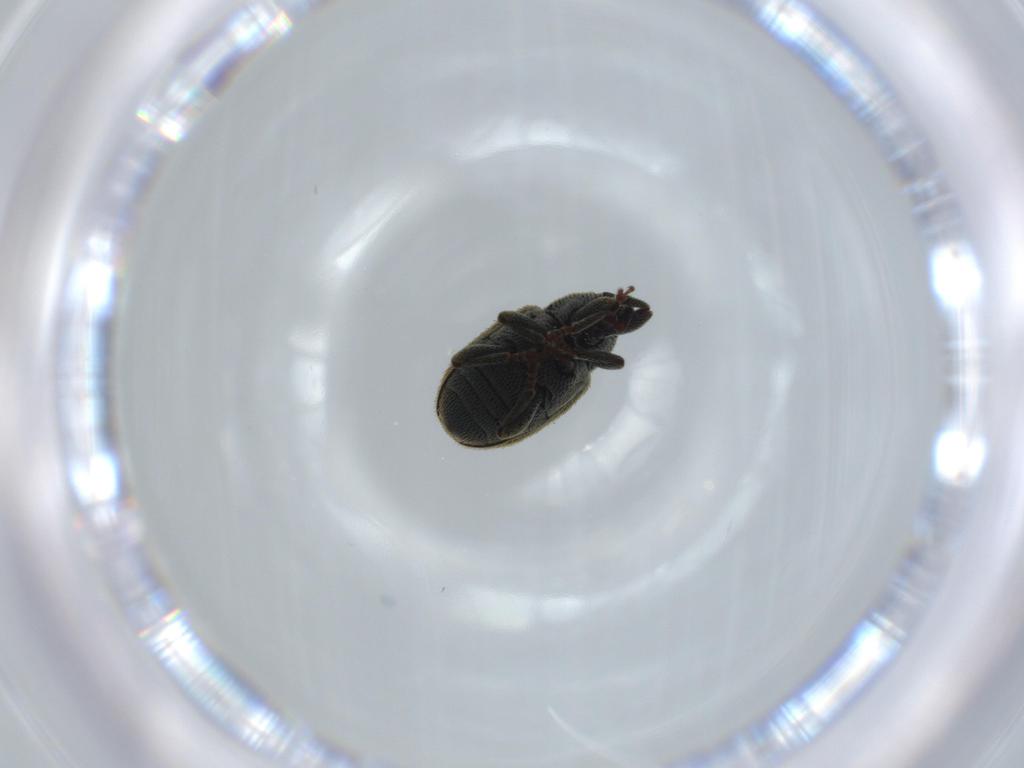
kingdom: Animalia
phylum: Arthropoda
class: Insecta
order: Coleoptera
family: Curculionidae
